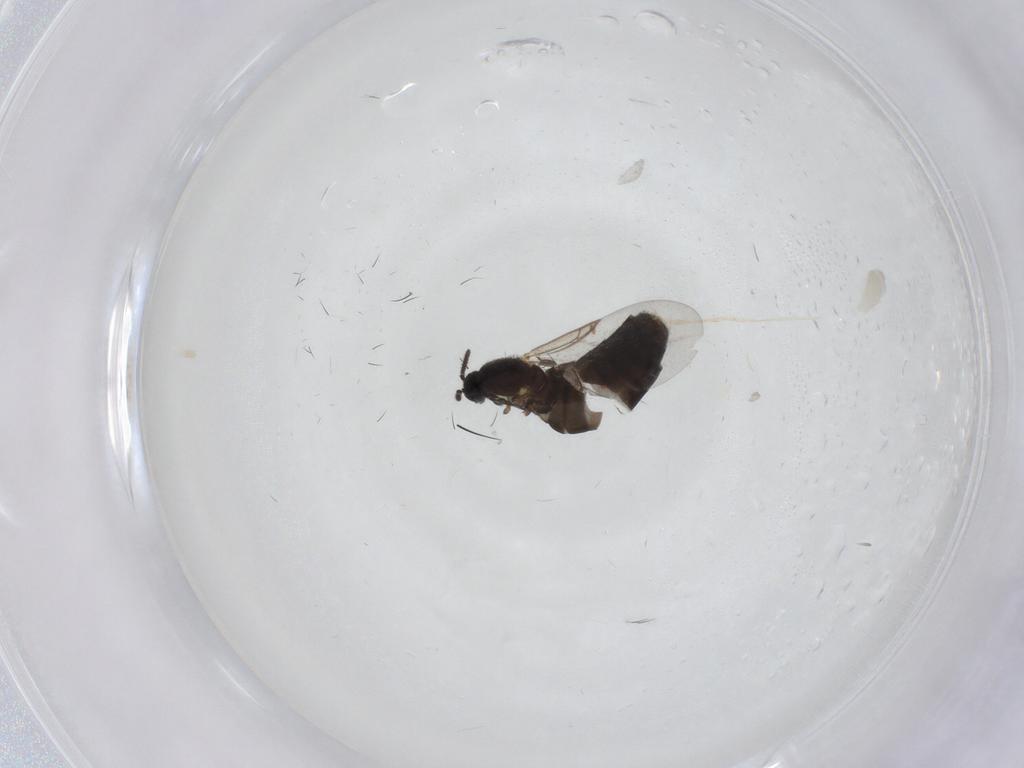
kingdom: Animalia
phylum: Arthropoda
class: Insecta
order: Diptera
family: Scatopsidae
